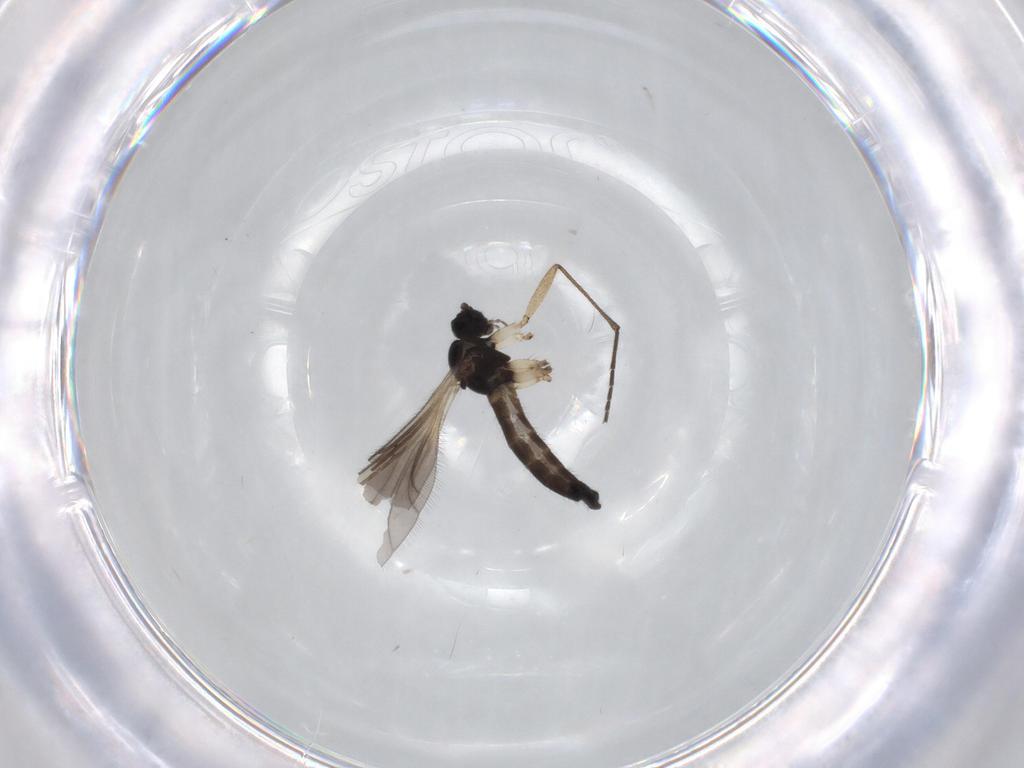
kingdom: Animalia
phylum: Arthropoda
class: Insecta
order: Diptera
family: Sciaridae
